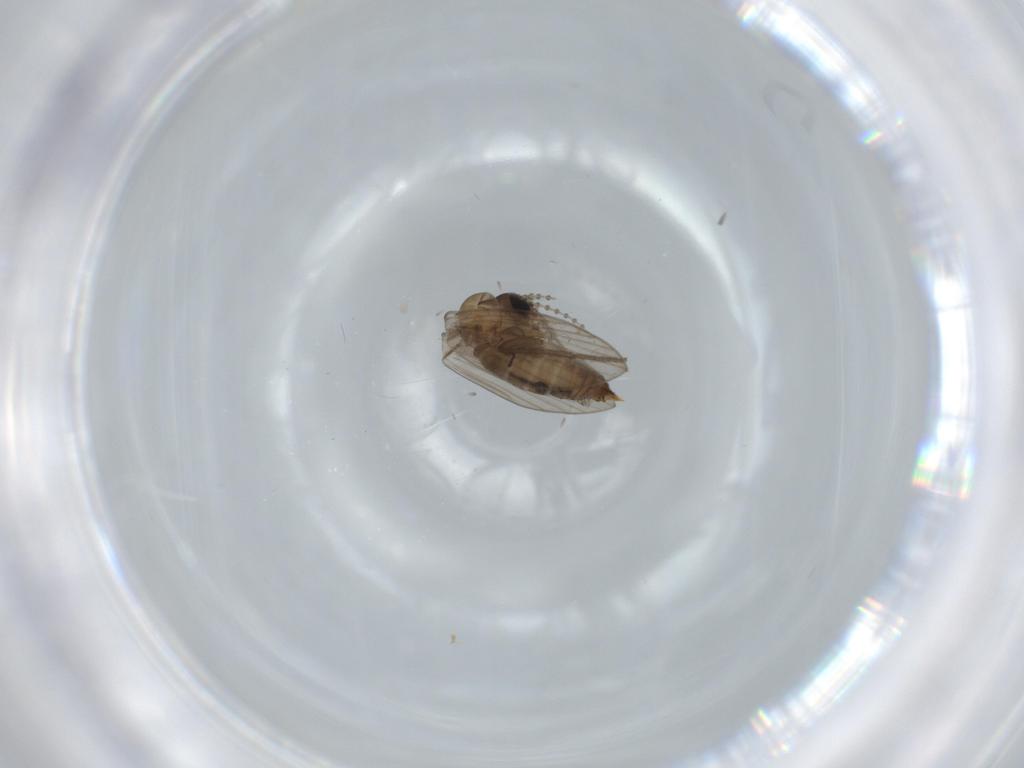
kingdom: Animalia
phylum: Arthropoda
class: Insecta
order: Diptera
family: Psychodidae
